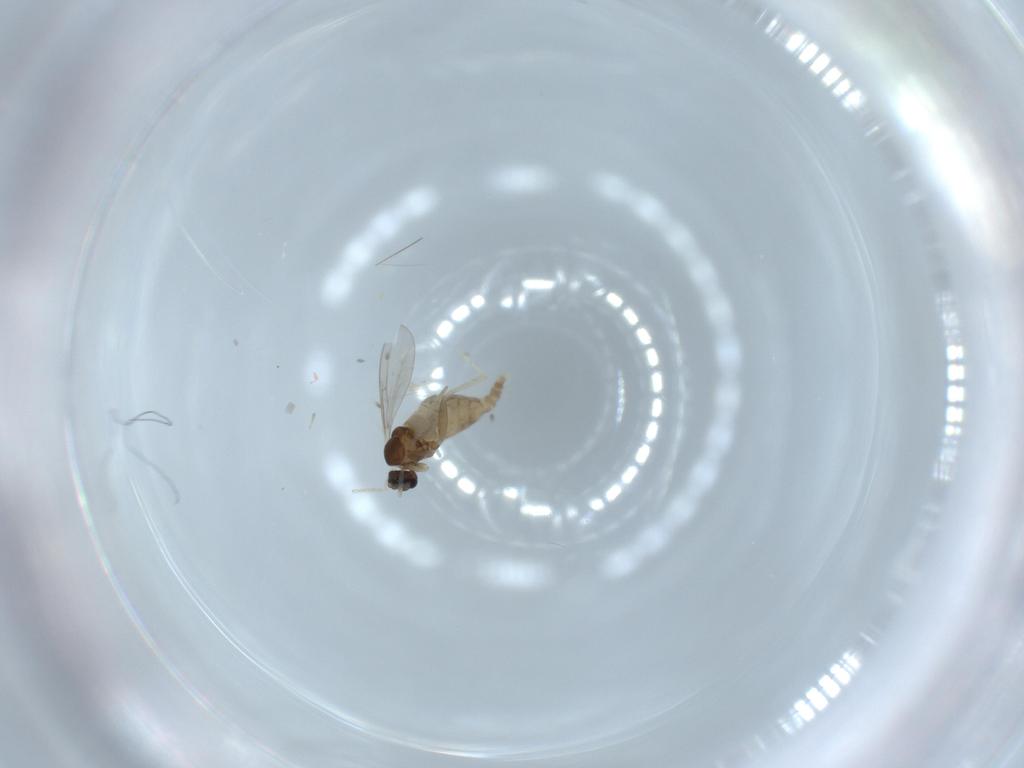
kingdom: Animalia
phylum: Arthropoda
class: Insecta
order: Diptera
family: Cecidomyiidae
